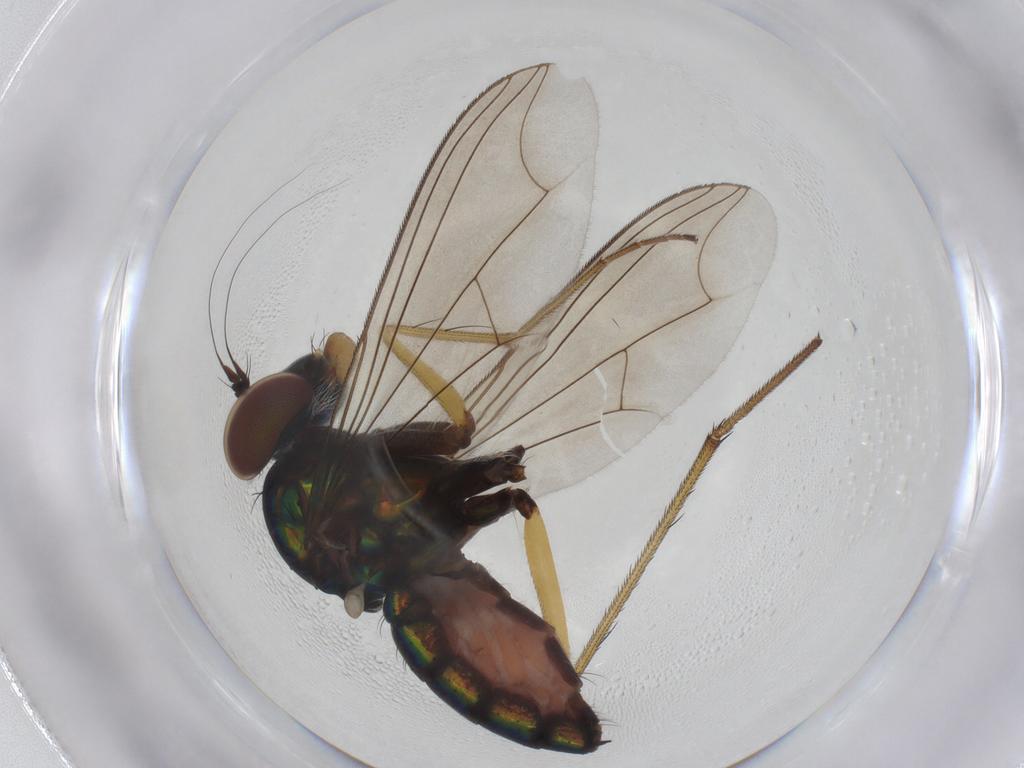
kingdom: Animalia
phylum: Arthropoda
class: Insecta
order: Diptera
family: Dolichopodidae
